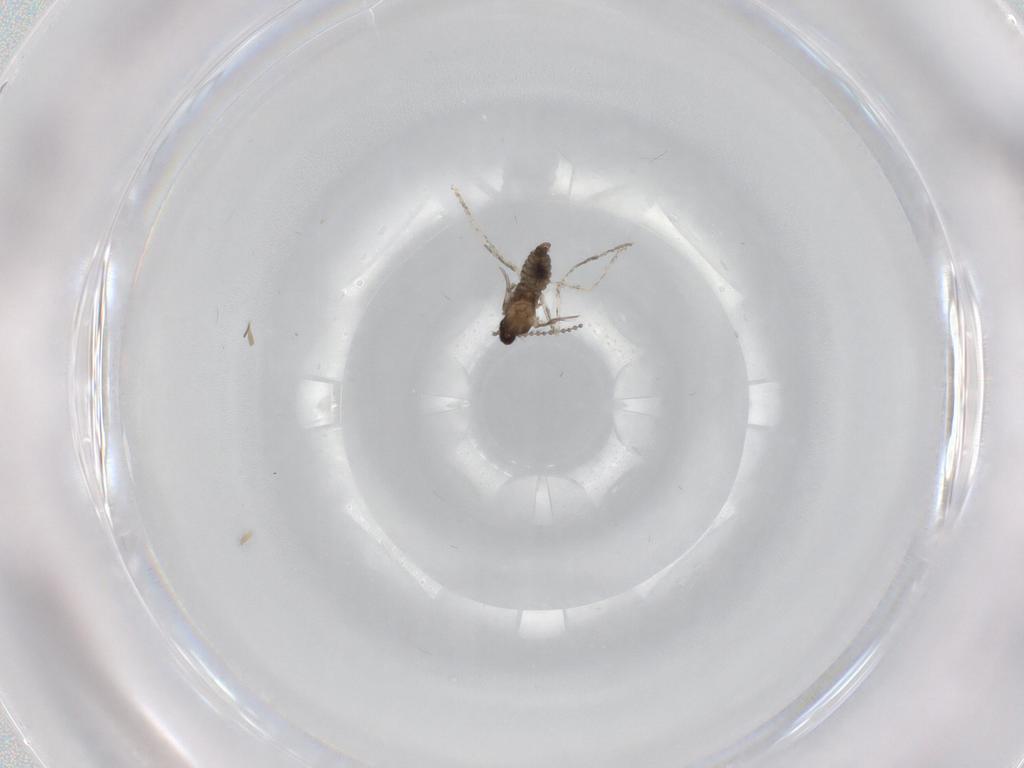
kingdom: Animalia
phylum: Arthropoda
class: Insecta
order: Diptera
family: Cecidomyiidae
